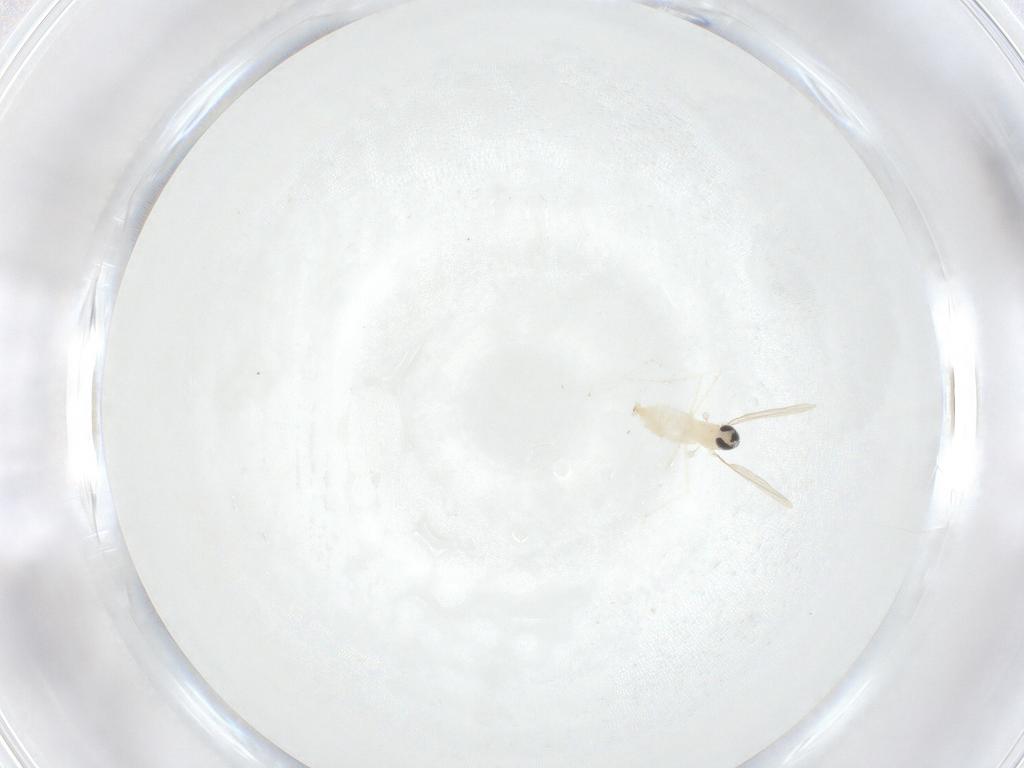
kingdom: Animalia
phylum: Arthropoda
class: Insecta
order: Diptera
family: Cecidomyiidae
